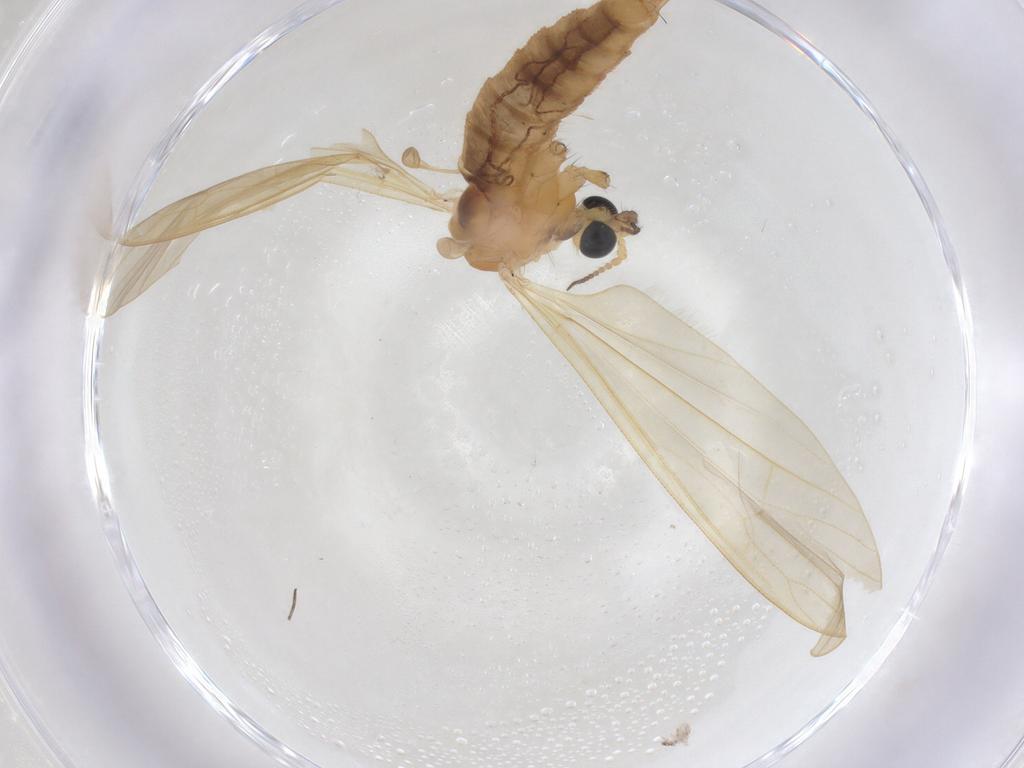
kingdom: Animalia
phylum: Arthropoda
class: Insecta
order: Diptera
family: Limoniidae
